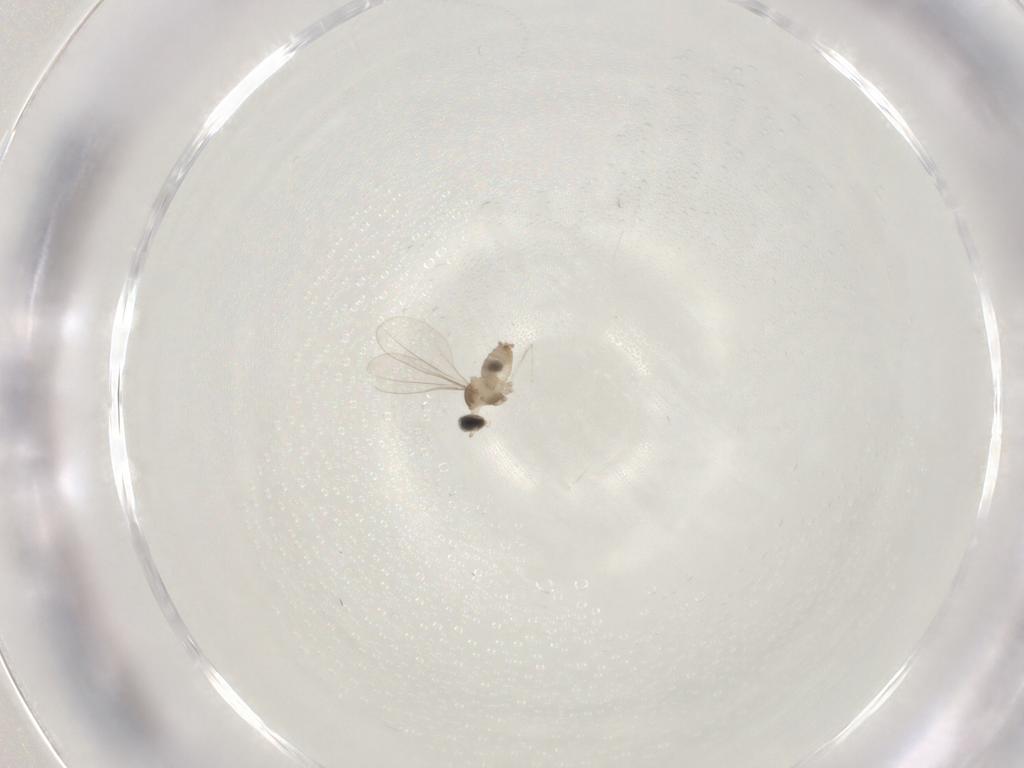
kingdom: Animalia
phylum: Arthropoda
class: Insecta
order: Diptera
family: Cecidomyiidae
